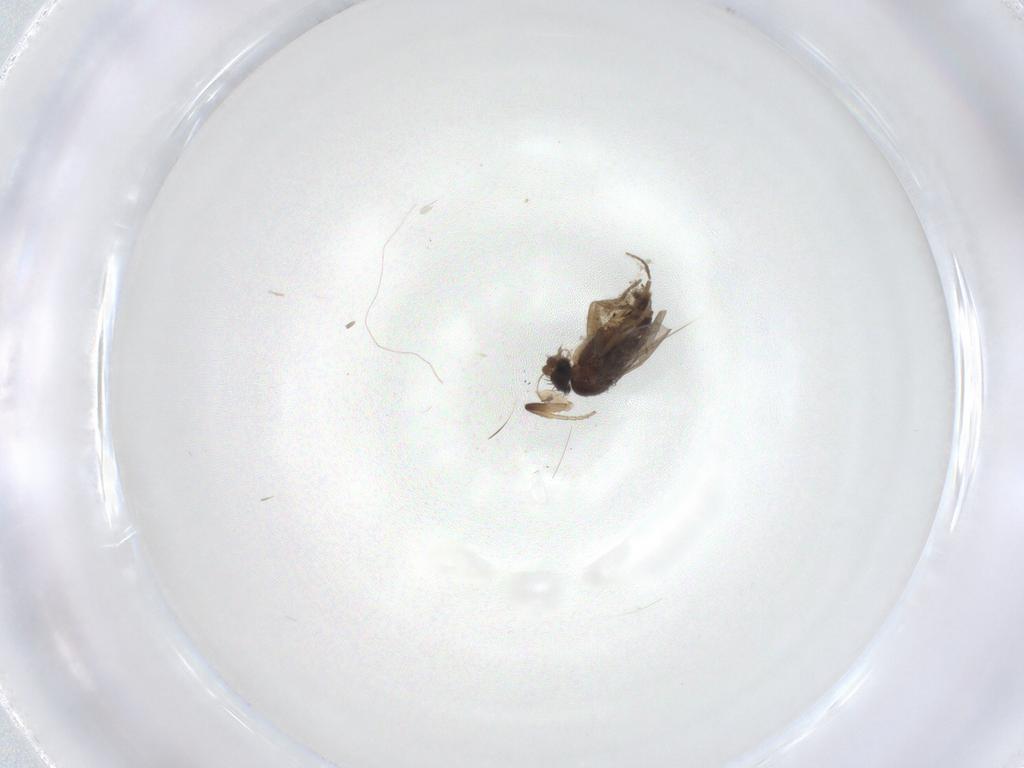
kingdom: Animalia
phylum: Arthropoda
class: Insecta
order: Diptera
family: Chironomidae
